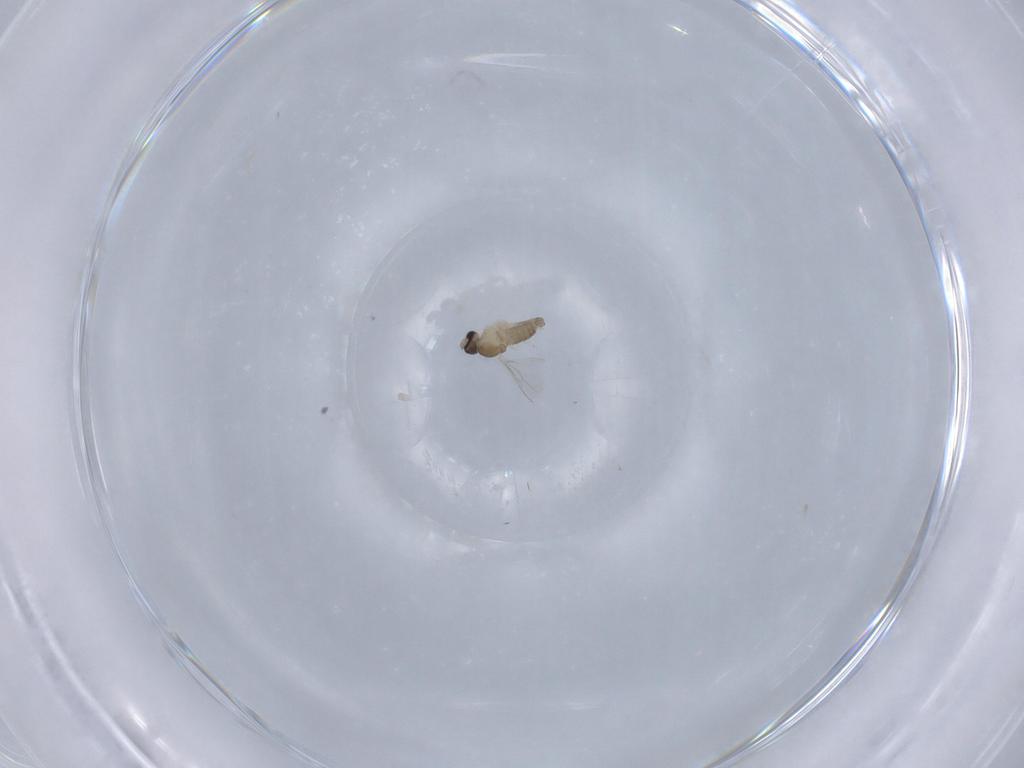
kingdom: Animalia
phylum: Arthropoda
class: Insecta
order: Diptera
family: Cecidomyiidae
